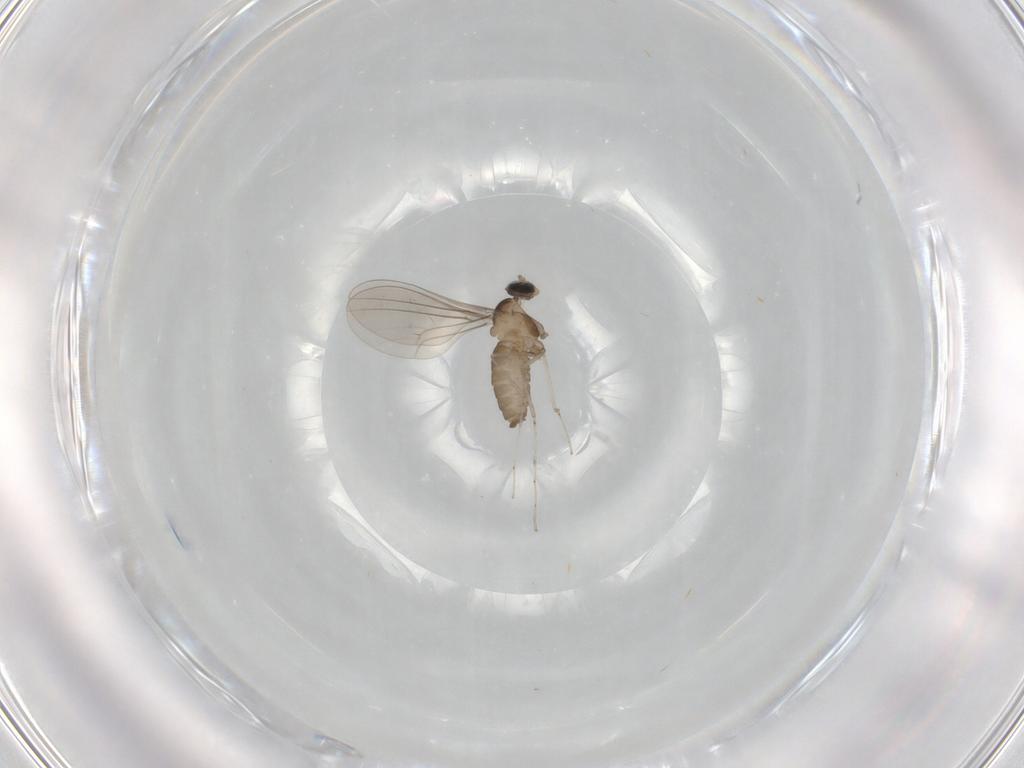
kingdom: Animalia
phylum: Arthropoda
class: Insecta
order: Diptera
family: Cecidomyiidae
